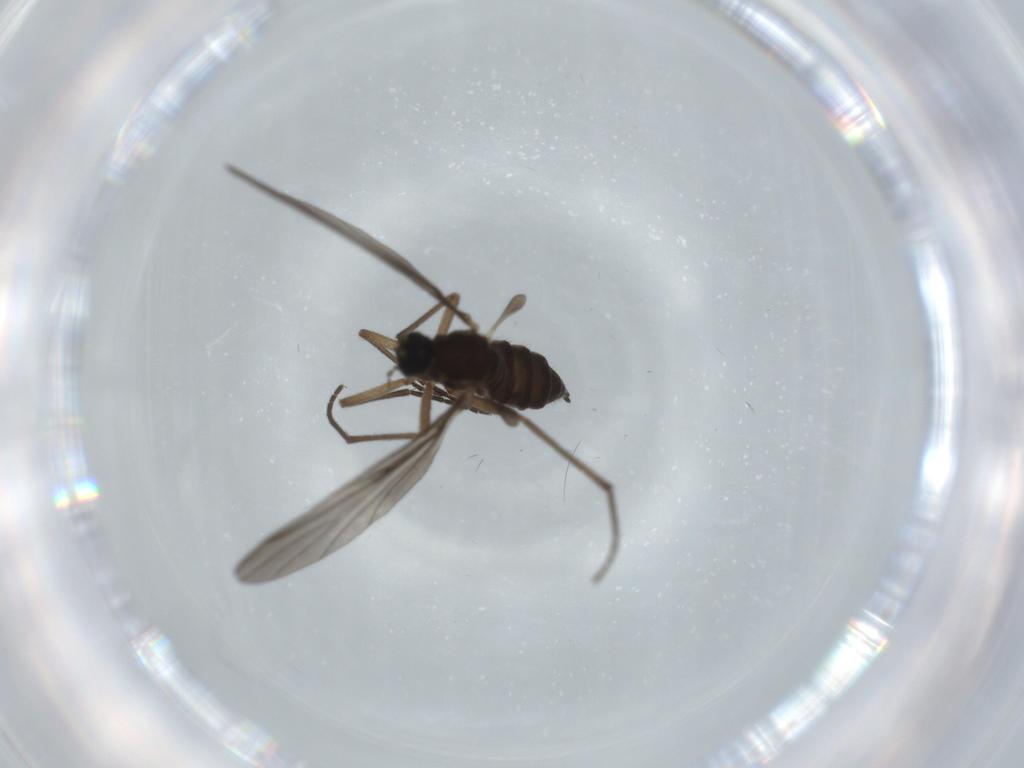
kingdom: Animalia
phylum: Arthropoda
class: Insecta
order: Diptera
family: Sciaridae
